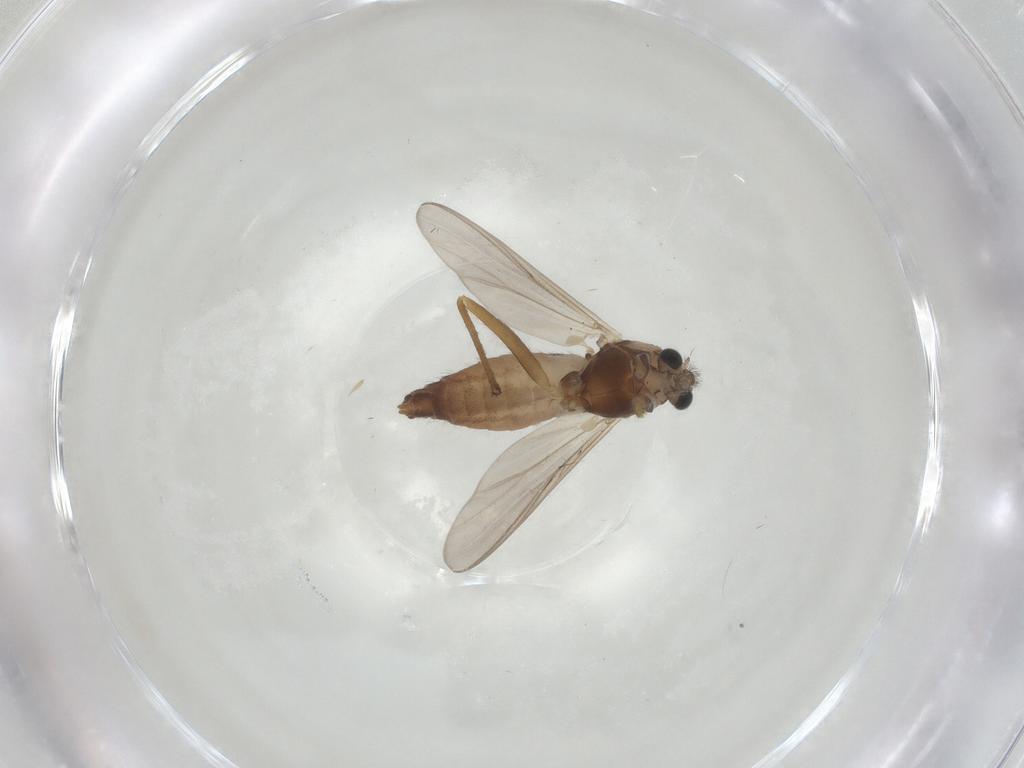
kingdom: Animalia
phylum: Arthropoda
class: Insecta
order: Diptera
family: Chironomidae
